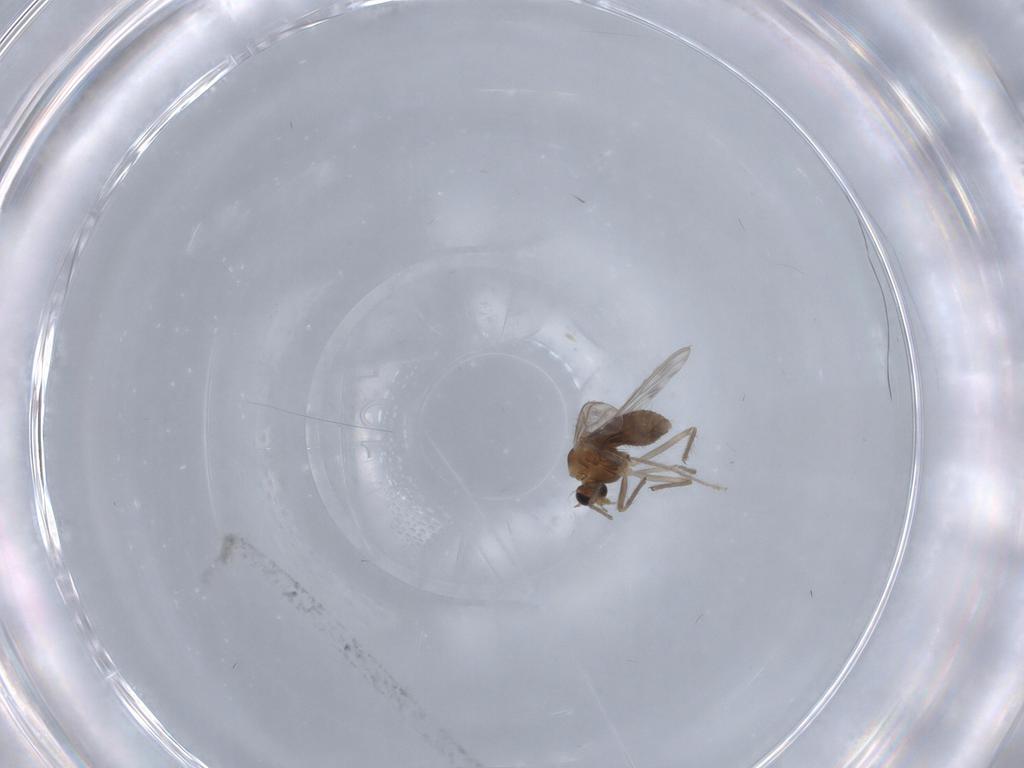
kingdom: Animalia
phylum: Arthropoda
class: Insecta
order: Diptera
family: Chironomidae
